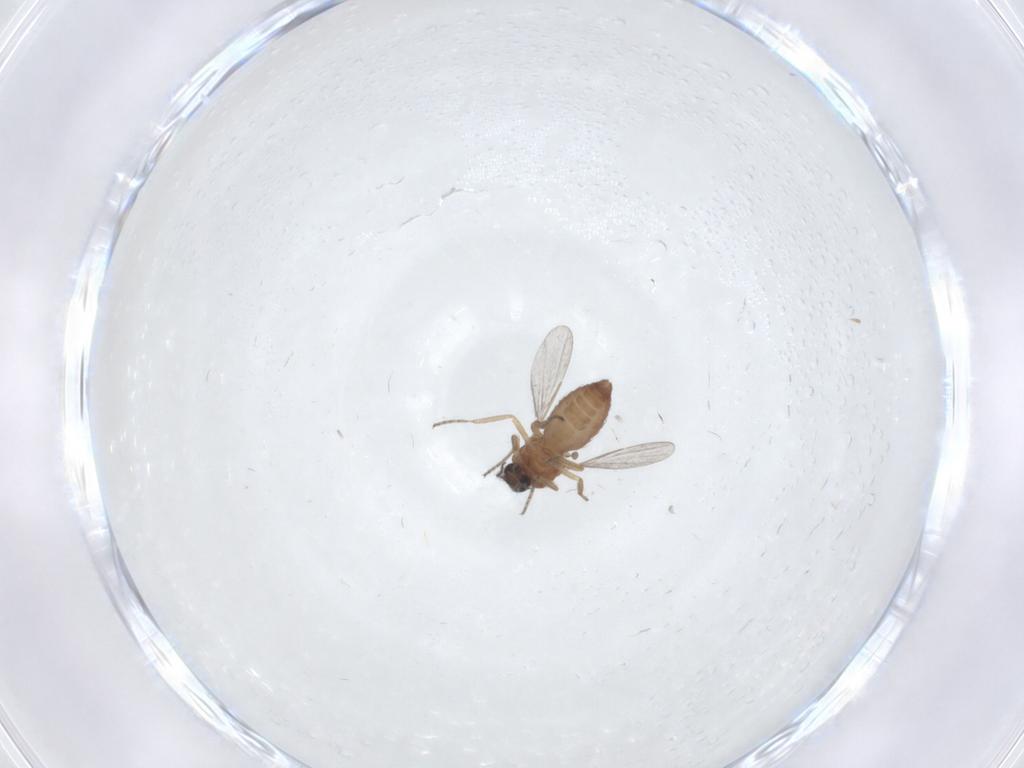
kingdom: Animalia
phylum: Arthropoda
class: Insecta
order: Diptera
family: Ceratopogonidae
